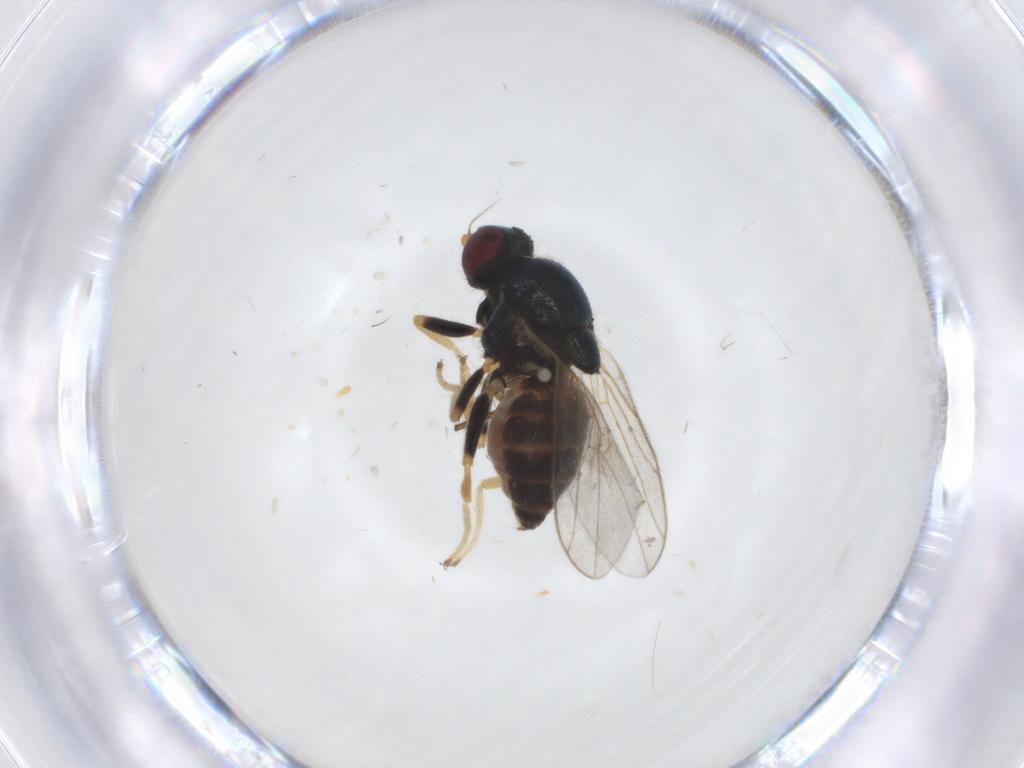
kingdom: Animalia
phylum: Arthropoda
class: Insecta
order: Diptera
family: Chloropidae
